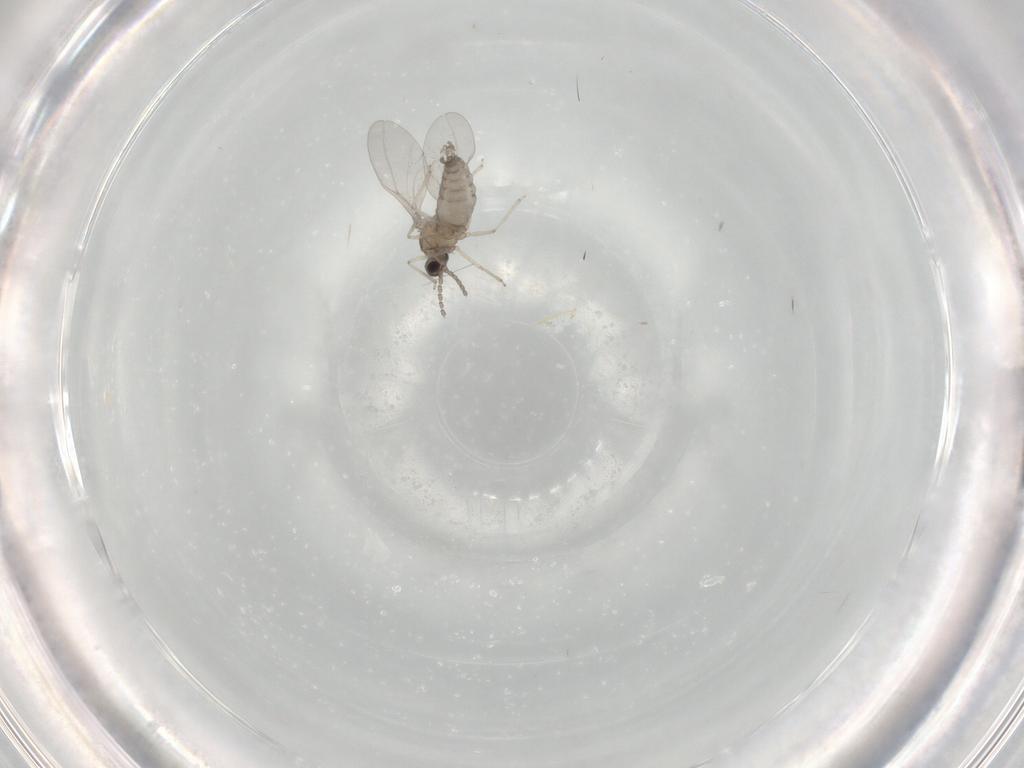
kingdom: Animalia
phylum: Arthropoda
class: Insecta
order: Diptera
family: Cecidomyiidae
